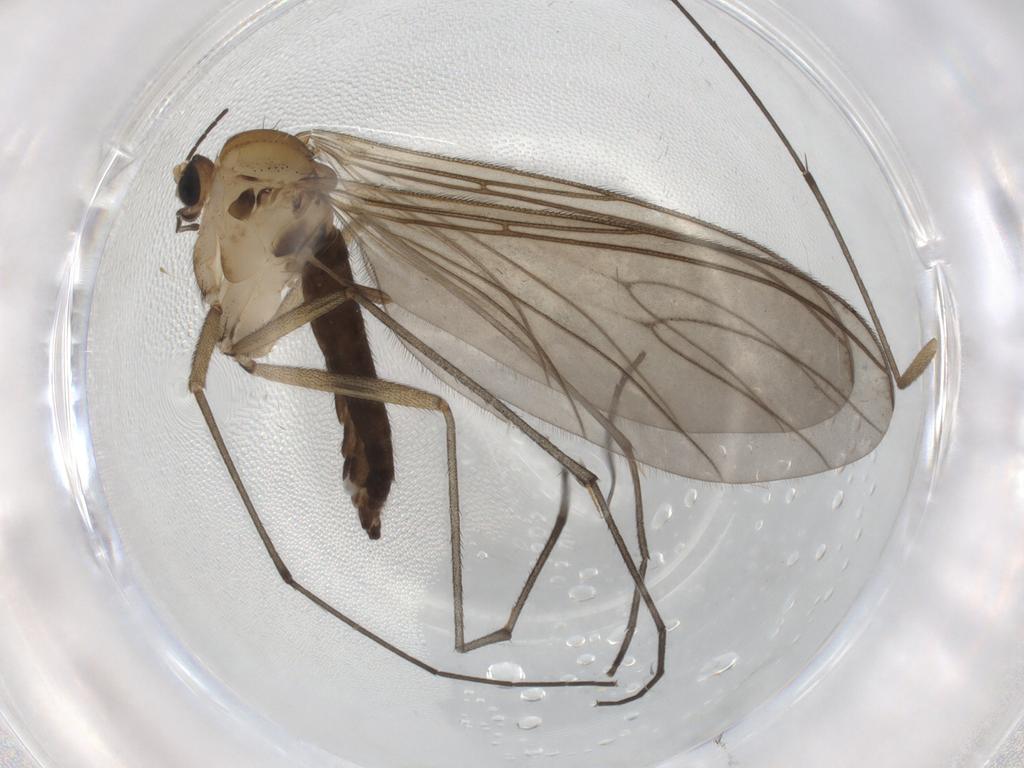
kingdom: Animalia
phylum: Arthropoda
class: Insecta
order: Diptera
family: Sciaridae
